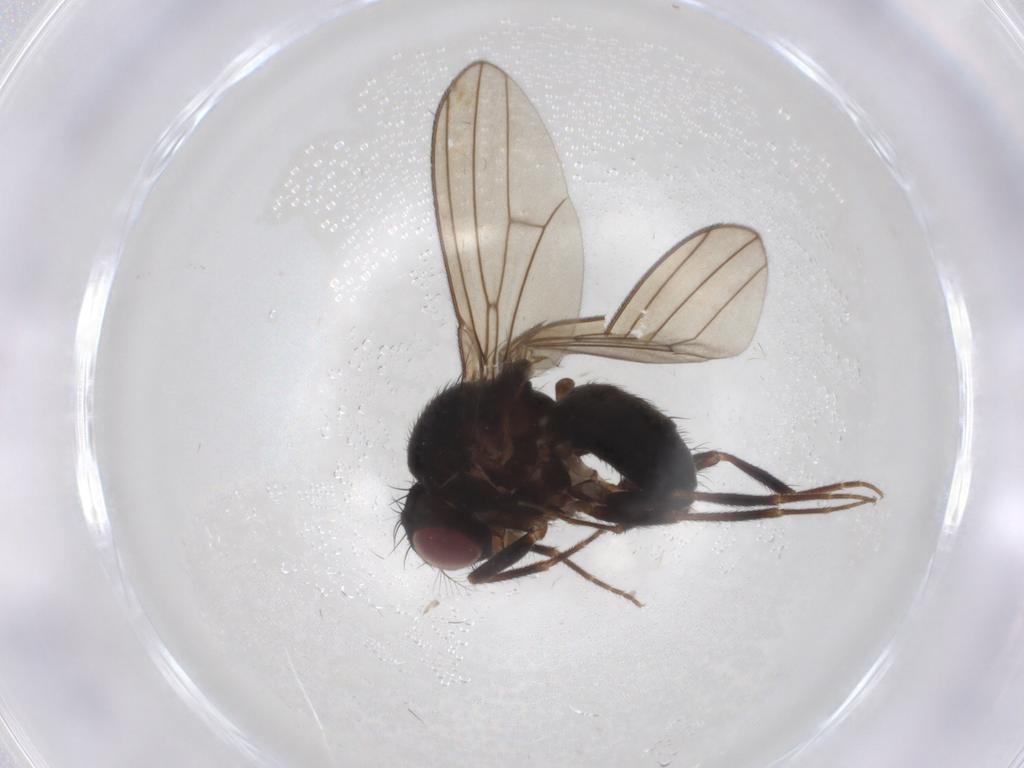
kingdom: Animalia
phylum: Arthropoda
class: Insecta
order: Diptera
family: Drosophilidae
